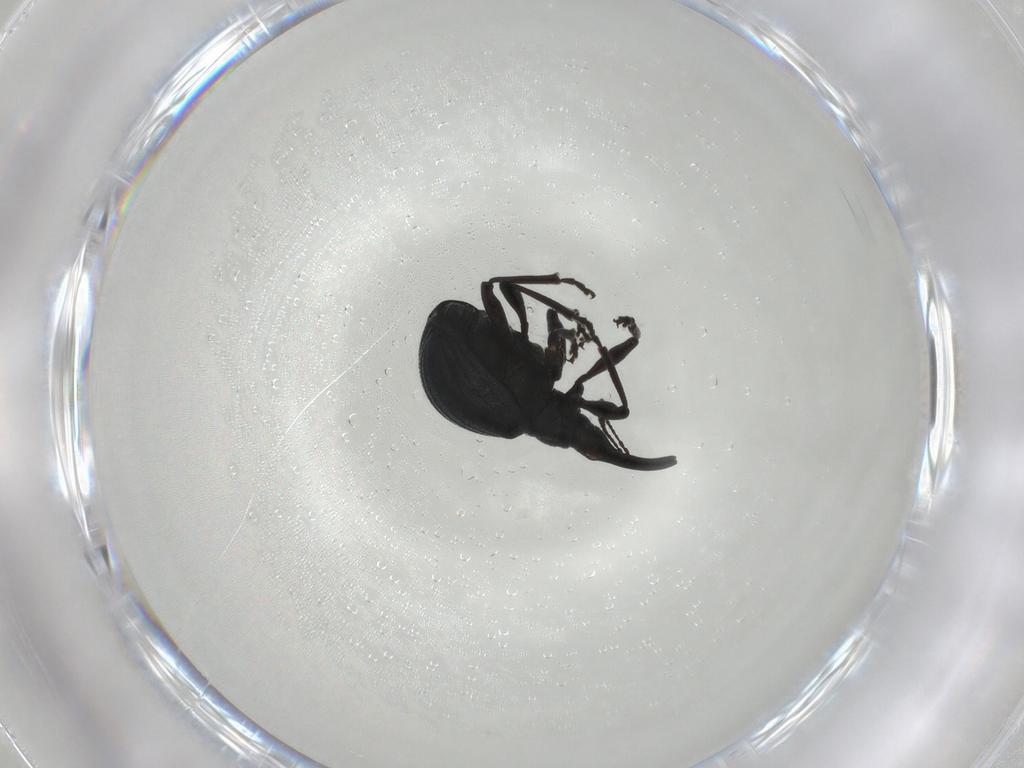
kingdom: Animalia
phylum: Arthropoda
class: Insecta
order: Coleoptera
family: Brentidae
